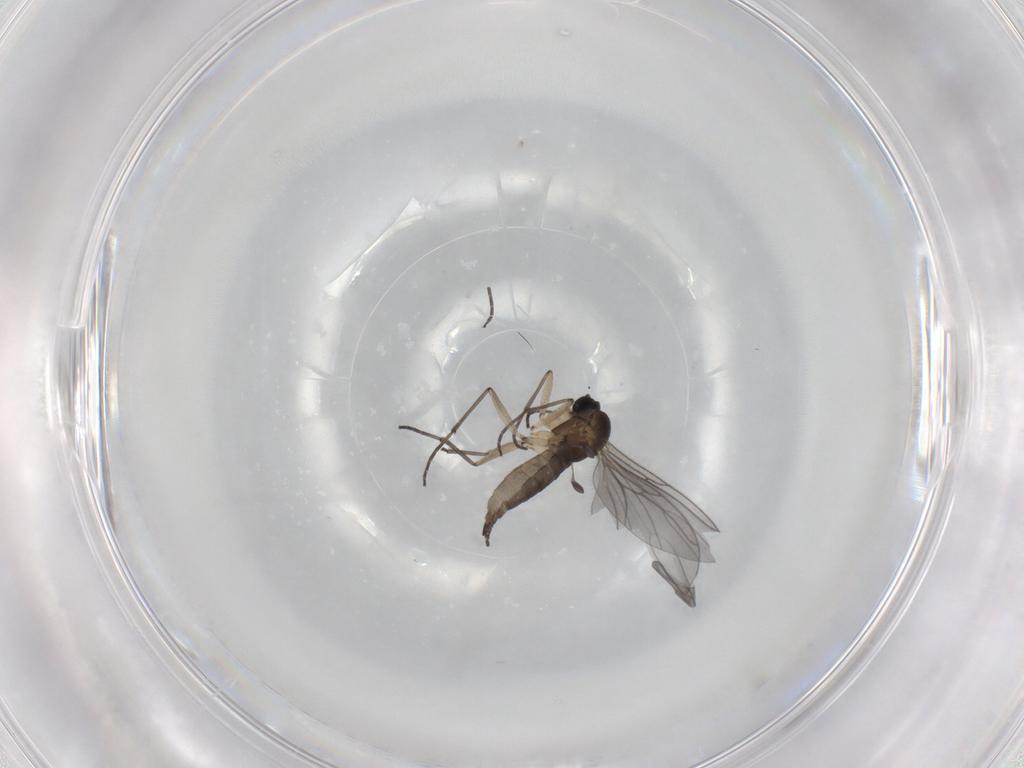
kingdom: Animalia
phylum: Arthropoda
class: Insecta
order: Diptera
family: Sciaridae
